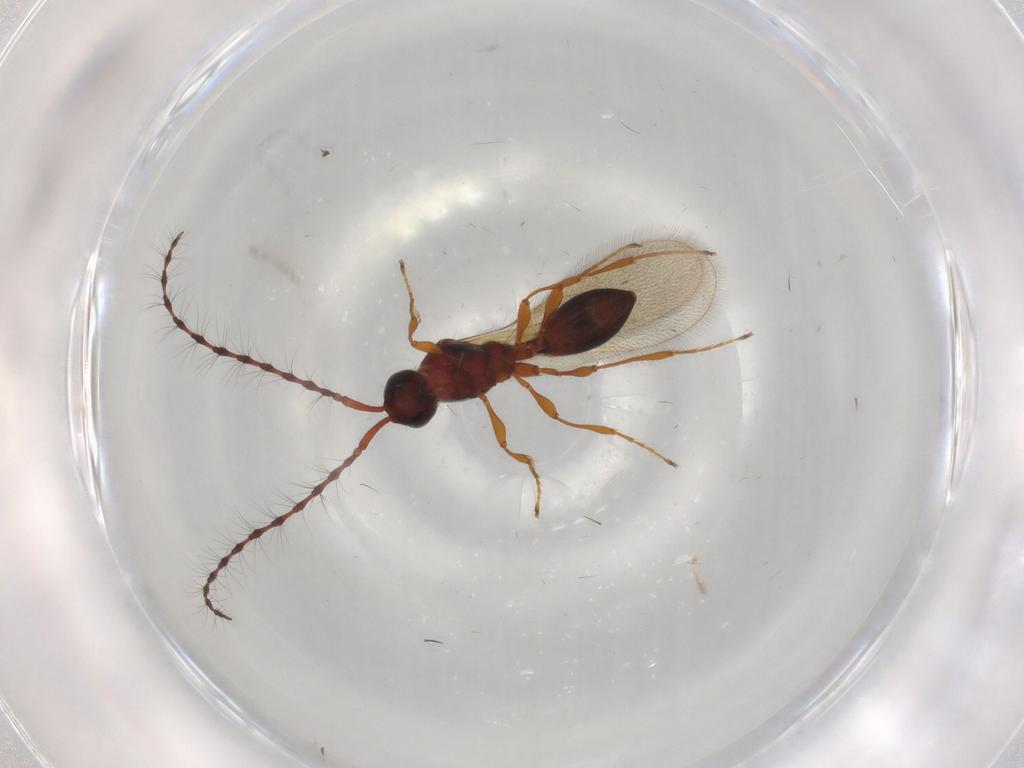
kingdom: Animalia
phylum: Arthropoda
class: Insecta
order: Hymenoptera
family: Diapriidae
